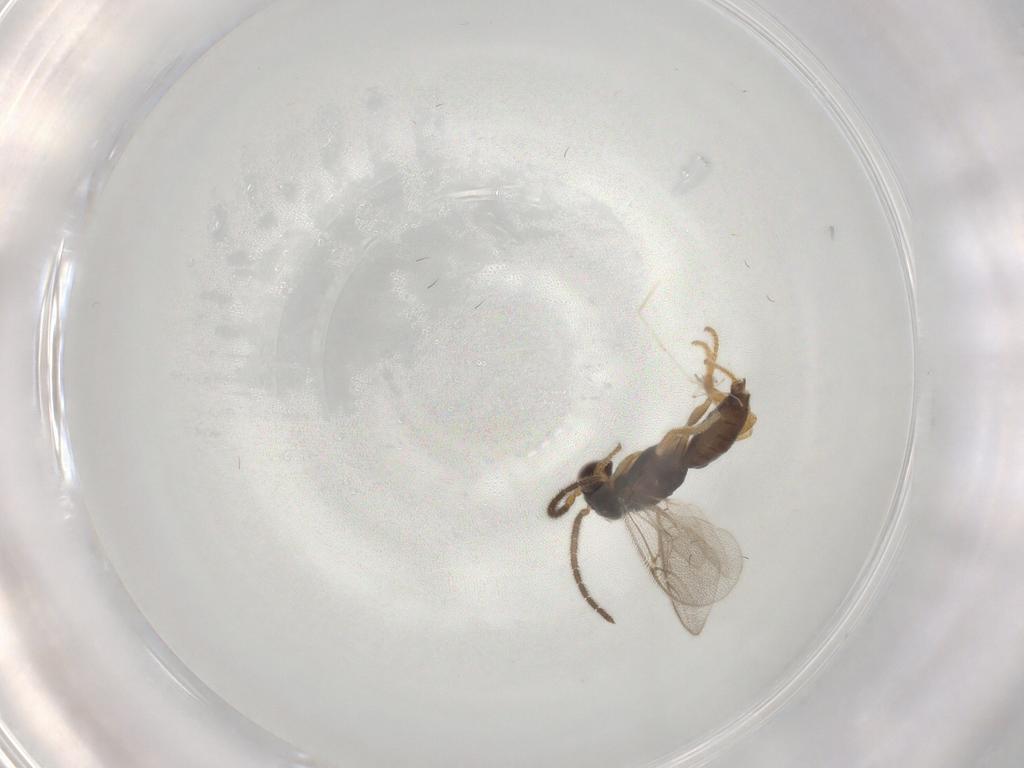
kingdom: Animalia
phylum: Arthropoda
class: Insecta
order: Hymenoptera
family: Dryinidae
